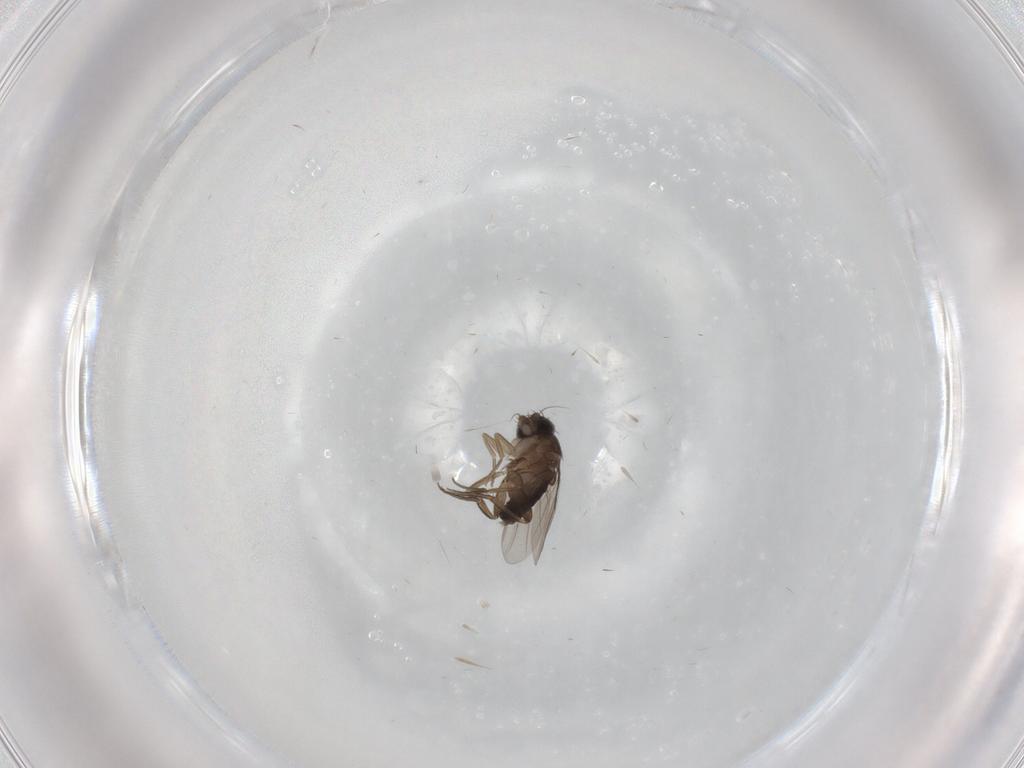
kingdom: Animalia
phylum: Arthropoda
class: Insecta
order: Diptera
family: Phoridae
